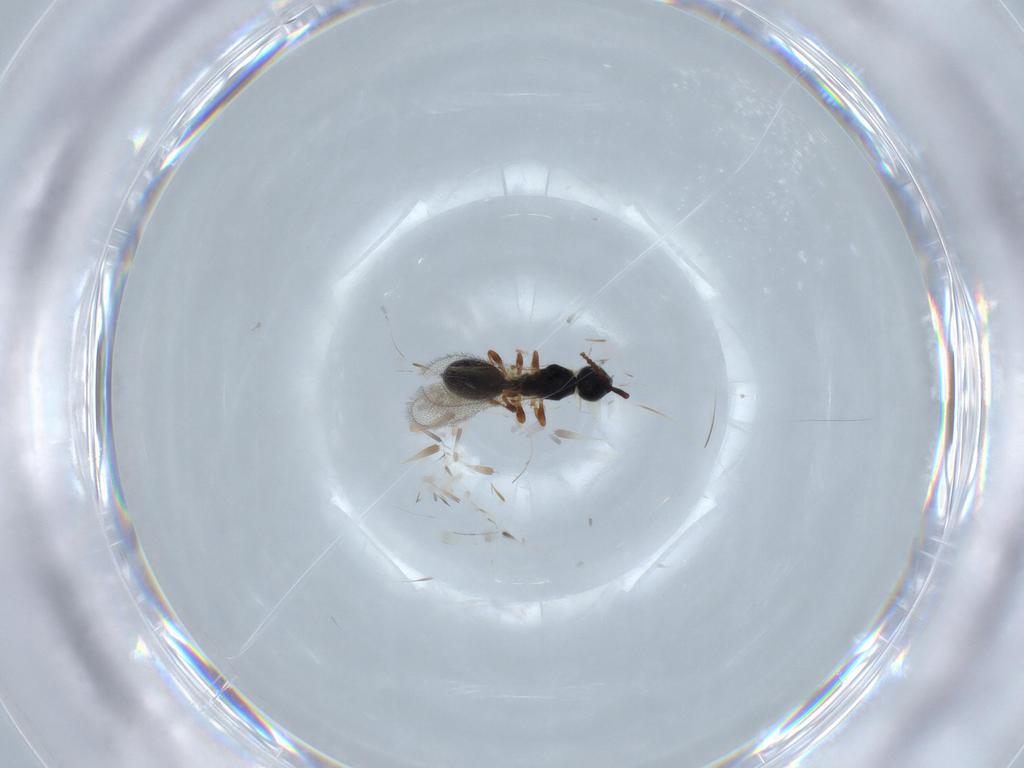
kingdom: Animalia
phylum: Arthropoda
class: Insecta
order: Hymenoptera
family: Diapriidae
